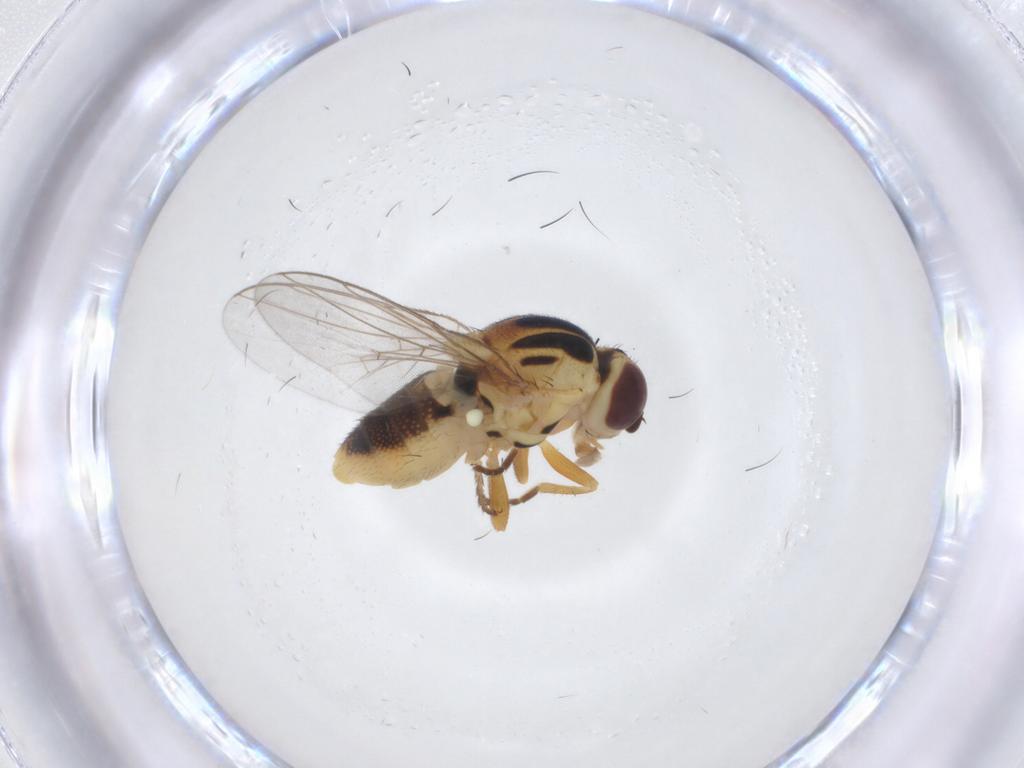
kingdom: Animalia
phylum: Arthropoda
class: Insecta
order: Diptera
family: Chloropidae
